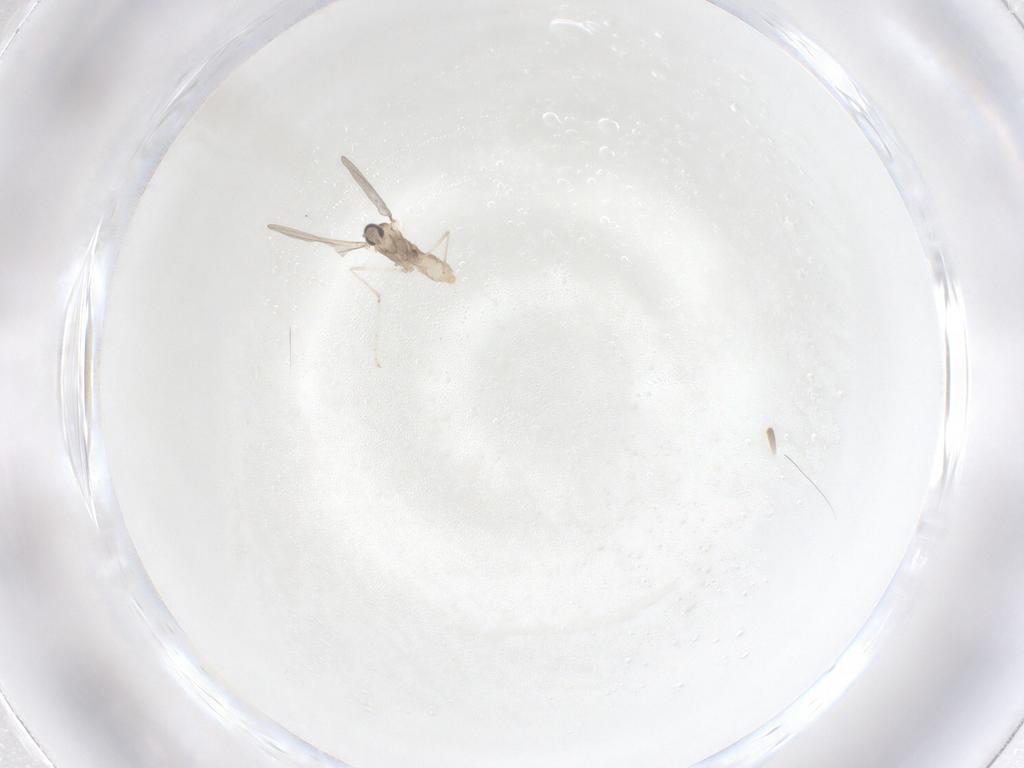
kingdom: Animalia
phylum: Arthropoda
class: Insecta
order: Diptera
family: Cecidomyiidae
